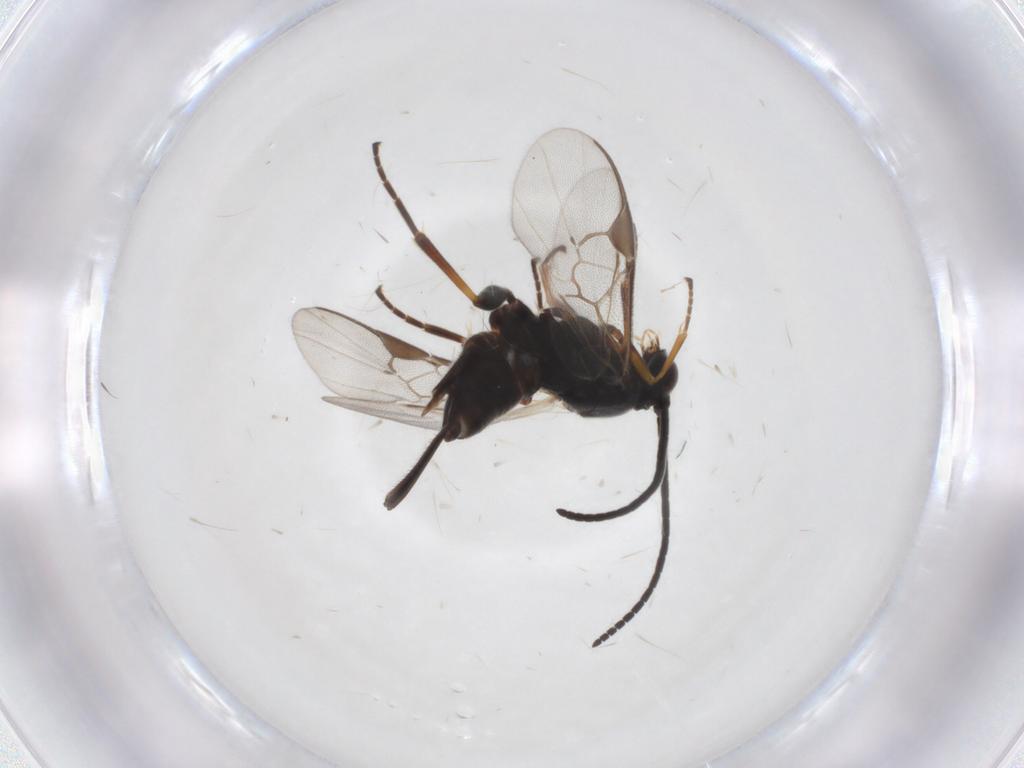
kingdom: Animalia
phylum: Arthropoda
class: Insecta
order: Hymenoptera
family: Braconidae
